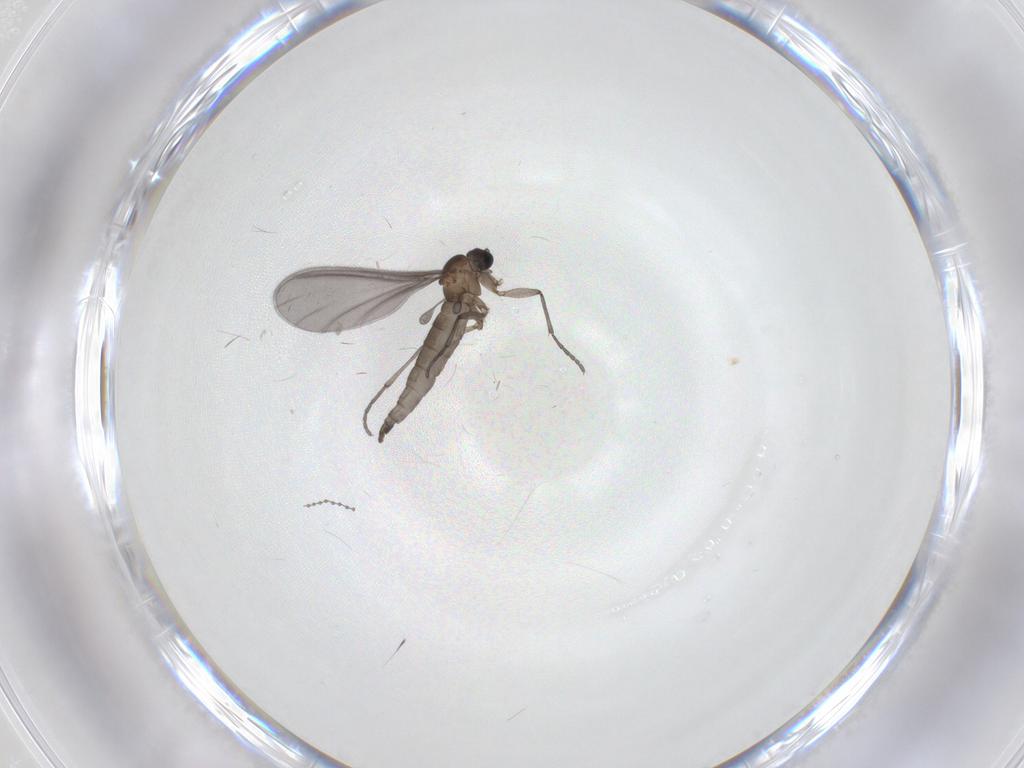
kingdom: Animalia
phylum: Arthropoda
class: Insecta
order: Diptera
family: Sciaridae
